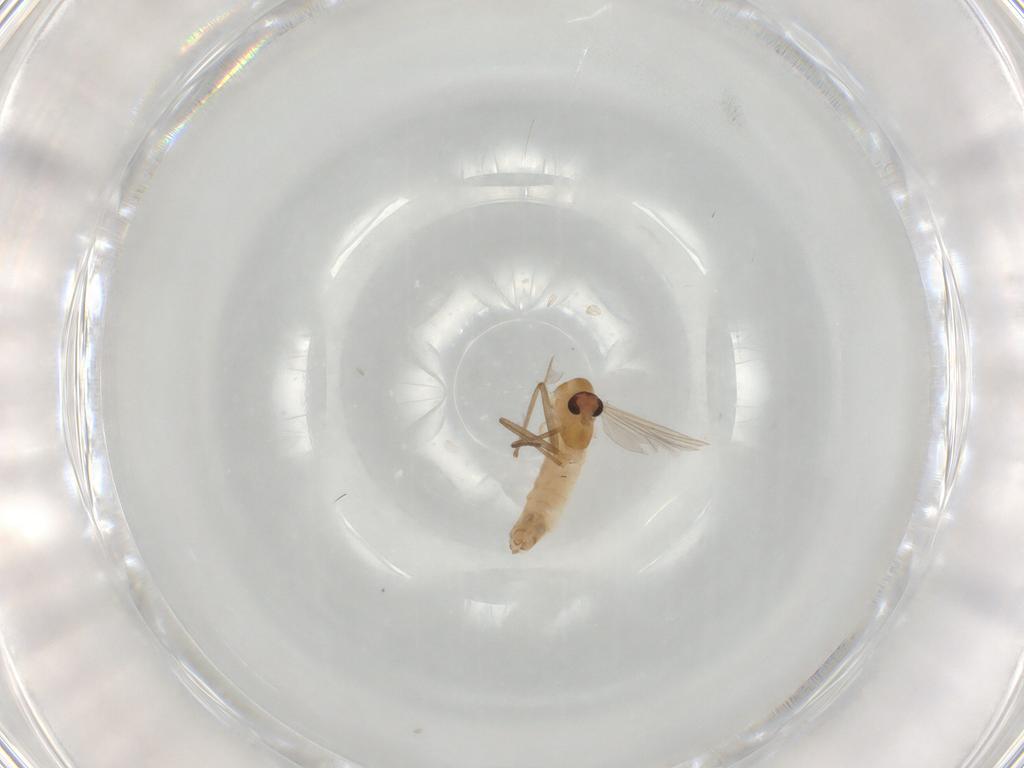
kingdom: Animalia
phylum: Arthropoda
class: Insecta
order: Diptera
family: Chironomidae
